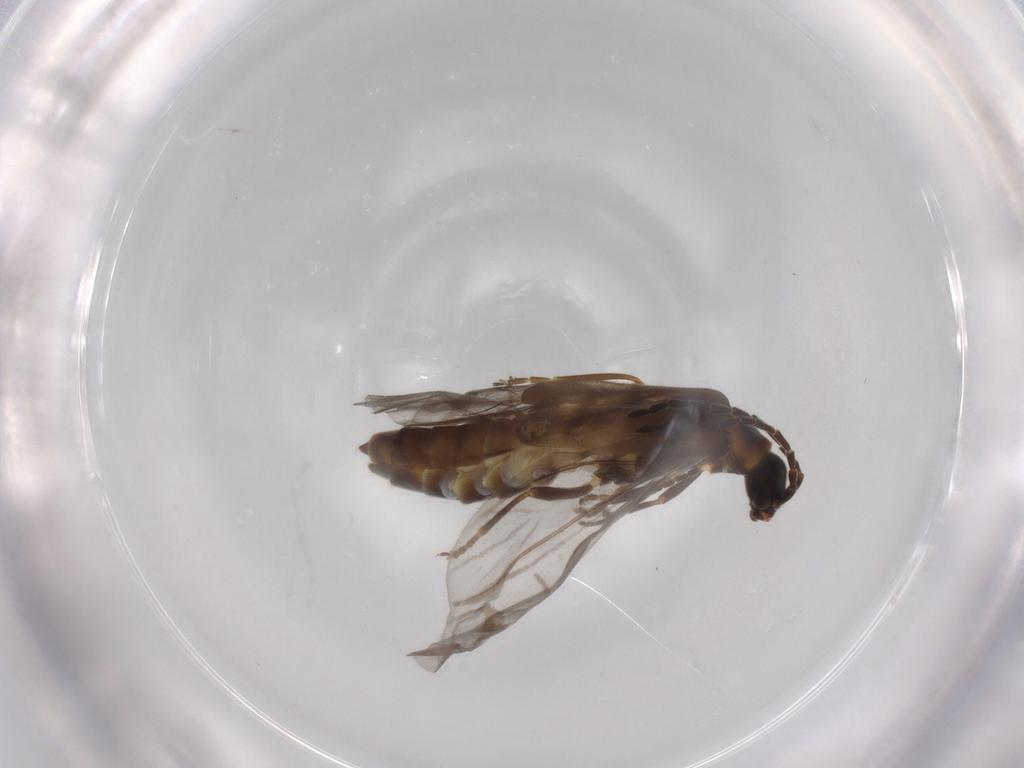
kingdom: Animalia
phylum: Arthropoda
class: Insecta
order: Coleoptera
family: Cantharidae
